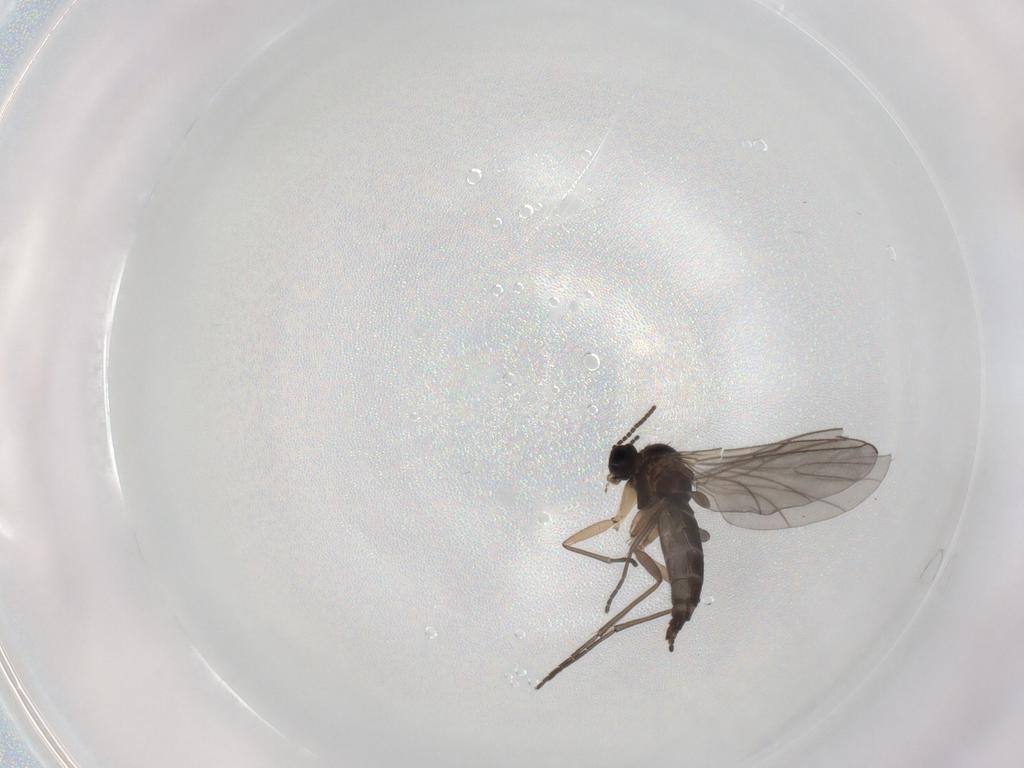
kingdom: Animalia
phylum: Arthropoda
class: Insecta
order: Diptera
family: Sciaridae
